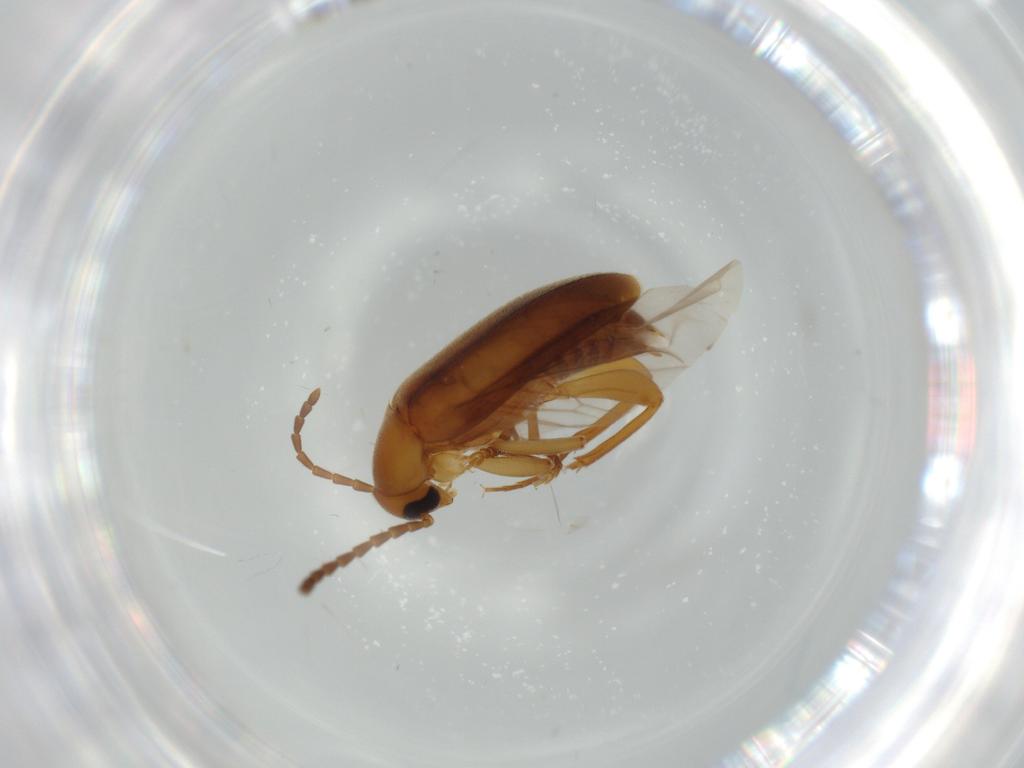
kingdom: Animalia
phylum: Arthropoda
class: Insecta
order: Coleoptera
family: Scraptiidae
